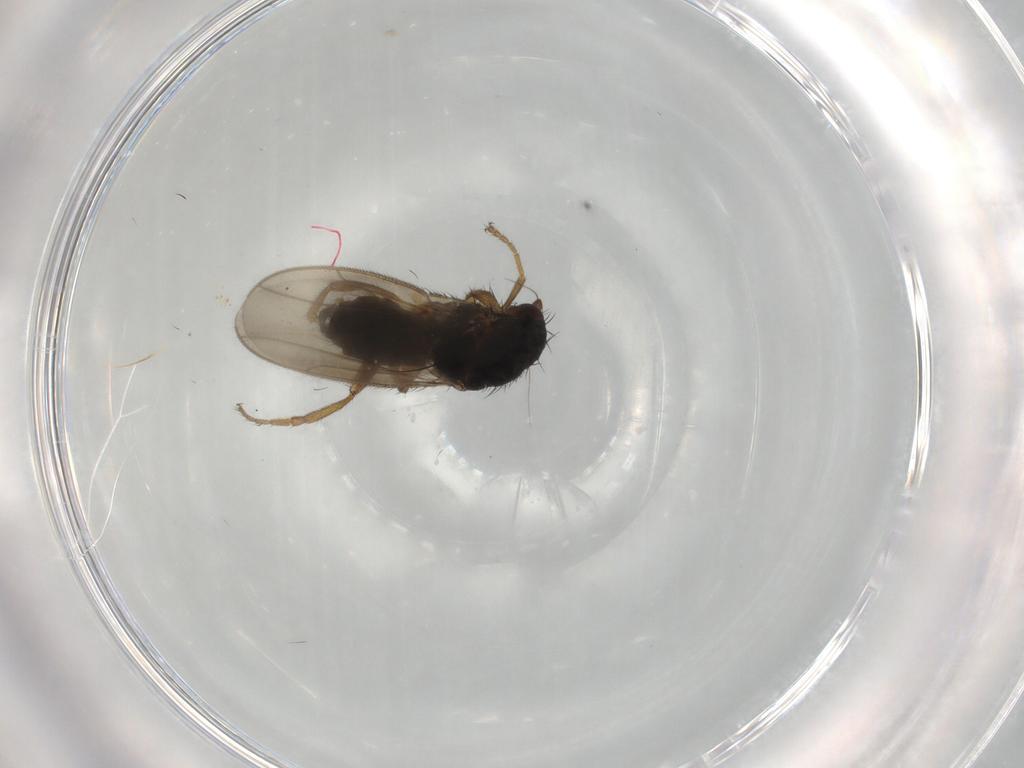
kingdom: Animalia
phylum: Arthropoda
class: Insecta
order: Diptera
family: Sphaeroceridae
